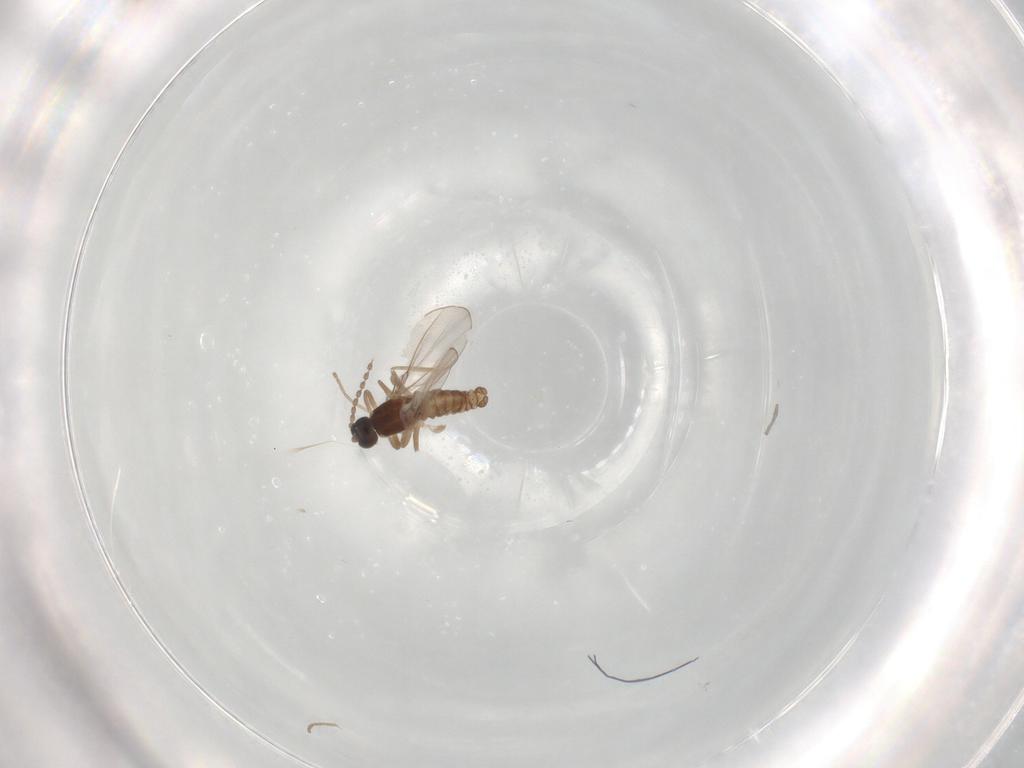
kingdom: Animalia
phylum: Arthropoda
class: Insecta
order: Diptera
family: Cecidomyiidae
